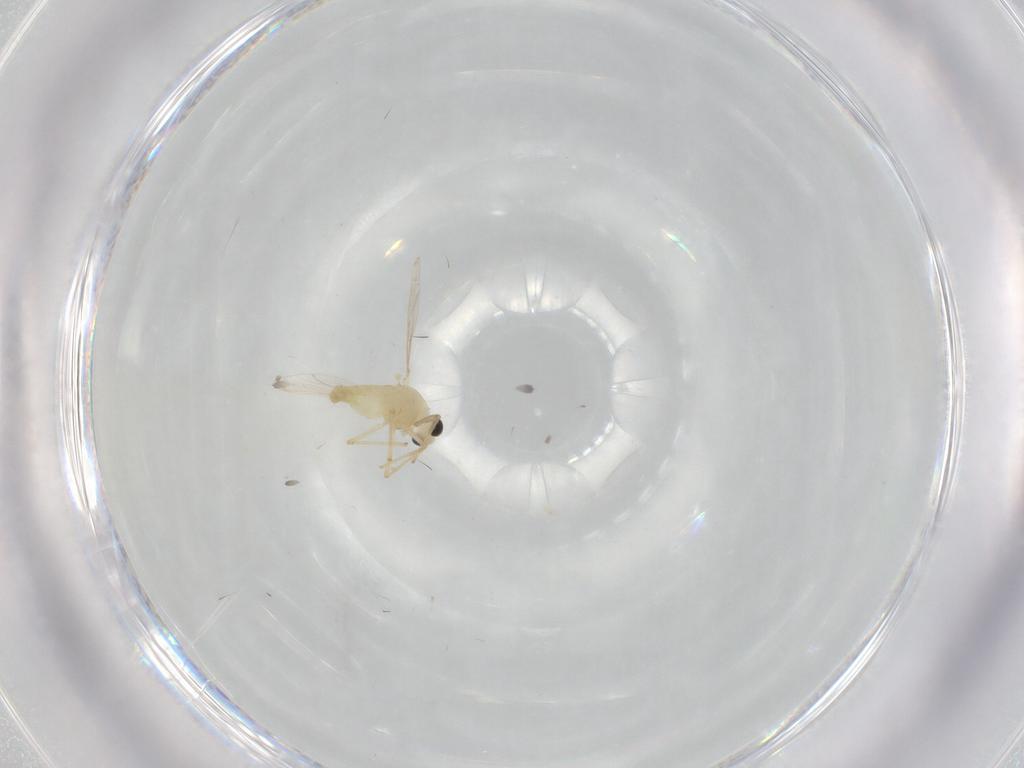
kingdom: Animalia
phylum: Arthropoda
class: Insecta
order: Diptera
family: Chironomidae
